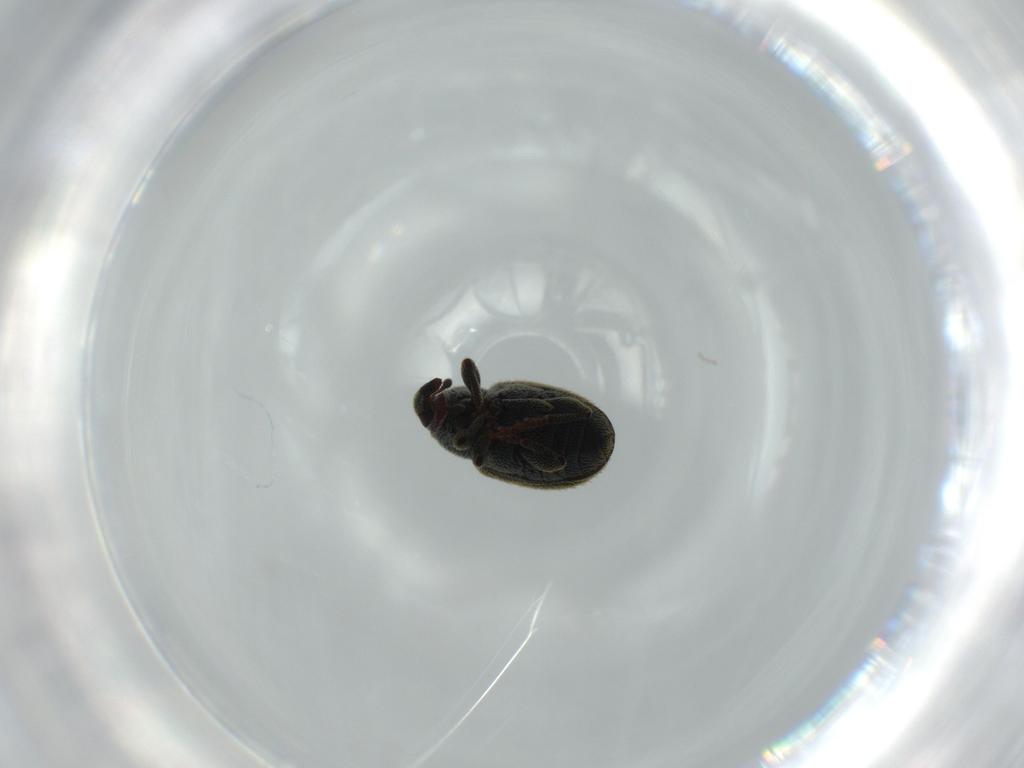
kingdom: Animalia
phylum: Arthropoda
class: Insecta
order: Coleoptera
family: Curculionidae
